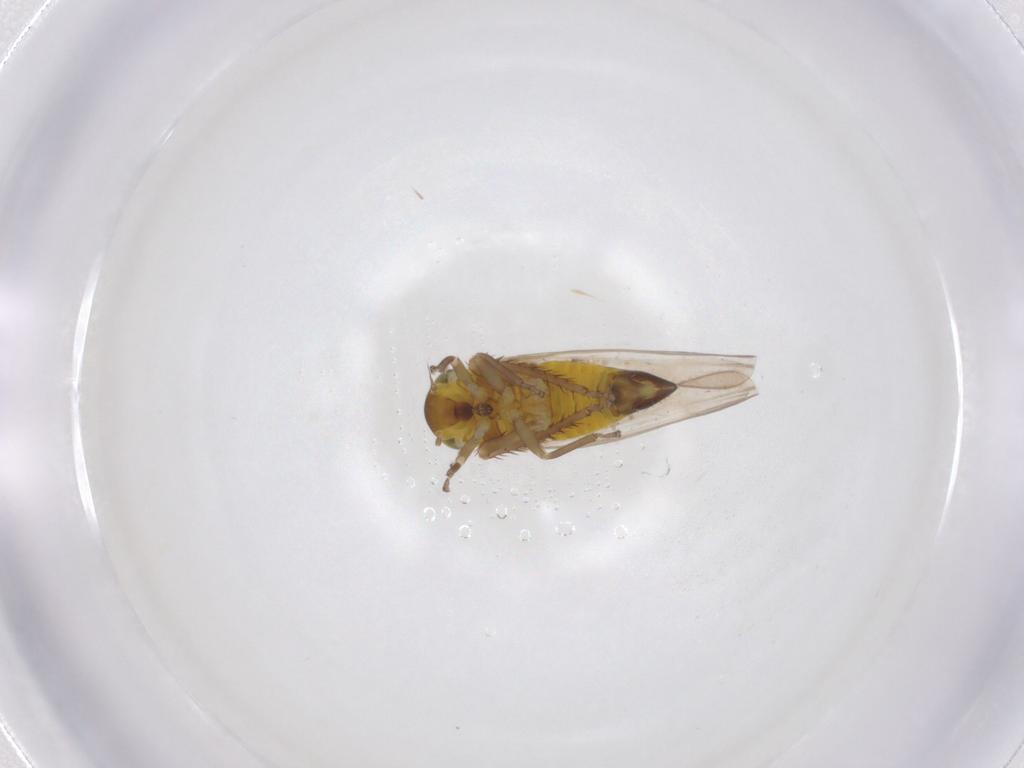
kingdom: Animalia
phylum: Arthropoda
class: Insecta
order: Hemiptera
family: Cicadellidae
